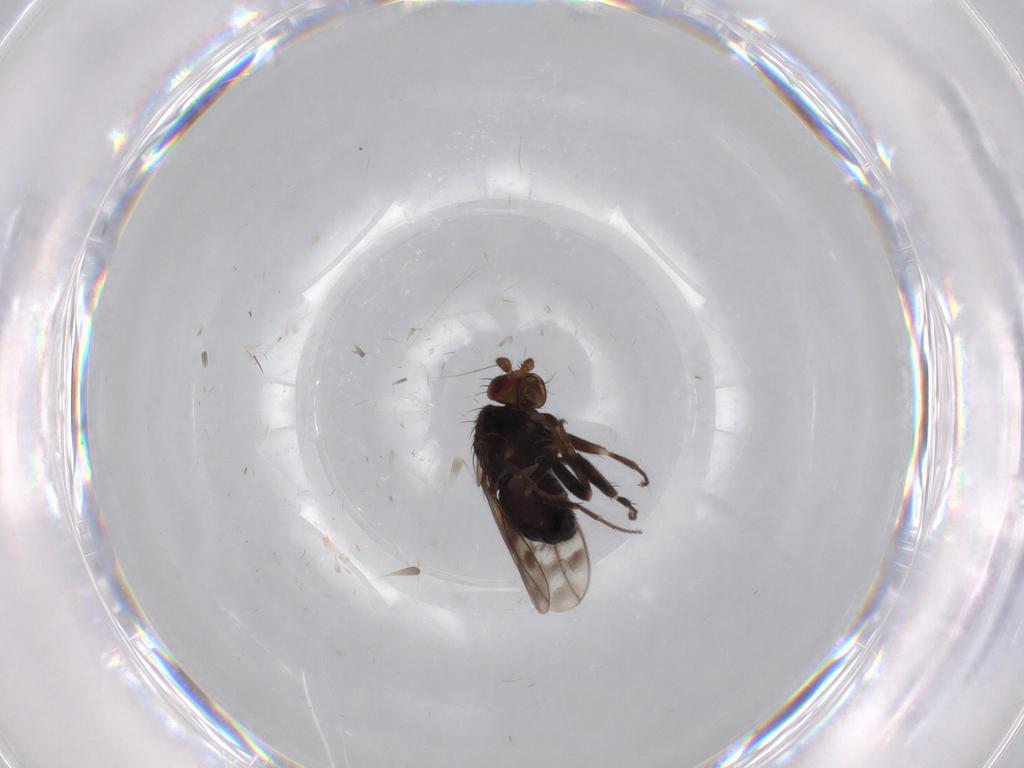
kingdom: Animalia
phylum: Arthropoda
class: Insecta
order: Diptera
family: Sphaeroceridae
